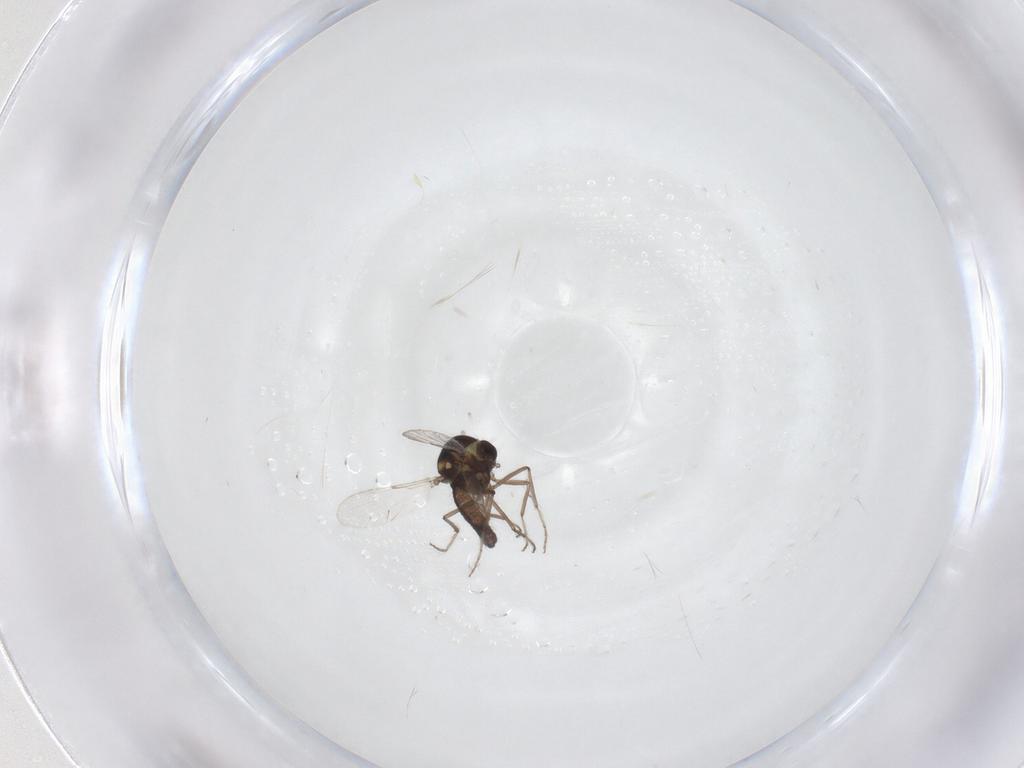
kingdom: Animalia
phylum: Arthropoda
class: Insecta
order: Diptera
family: Ceratopogonidae
